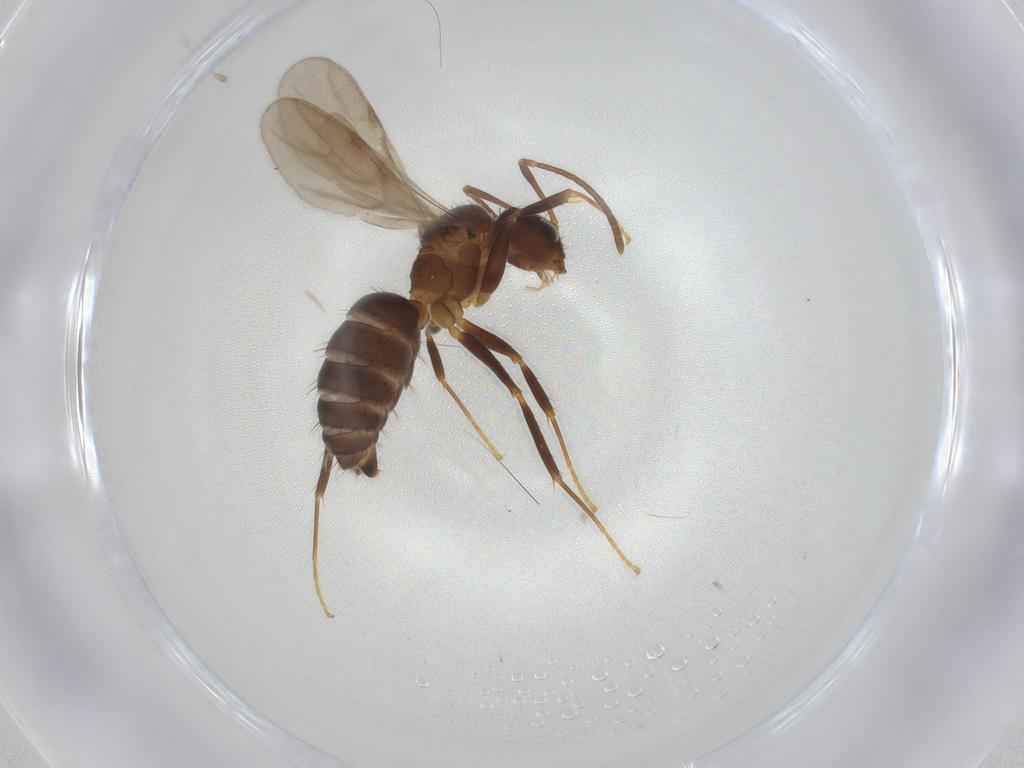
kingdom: Animalia
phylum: Arthropoda
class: Insecta
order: Hymenoptera
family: Formicidae
